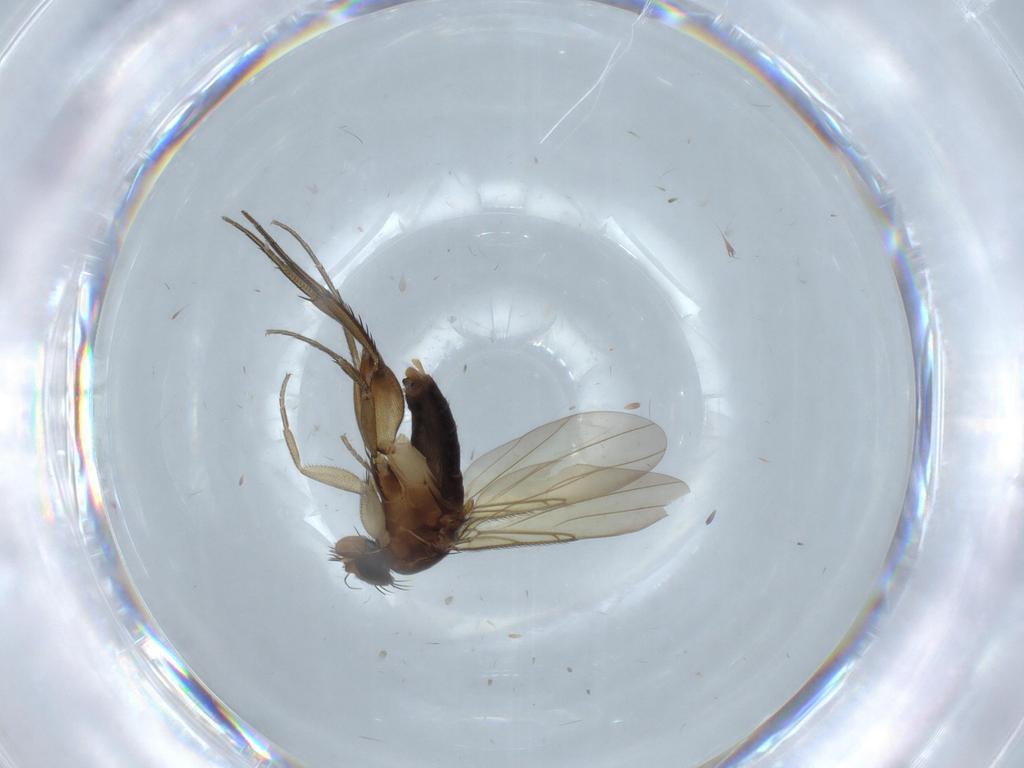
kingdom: Animalia
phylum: Arthropoda
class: Insecta
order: Diptera
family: Phoridae
